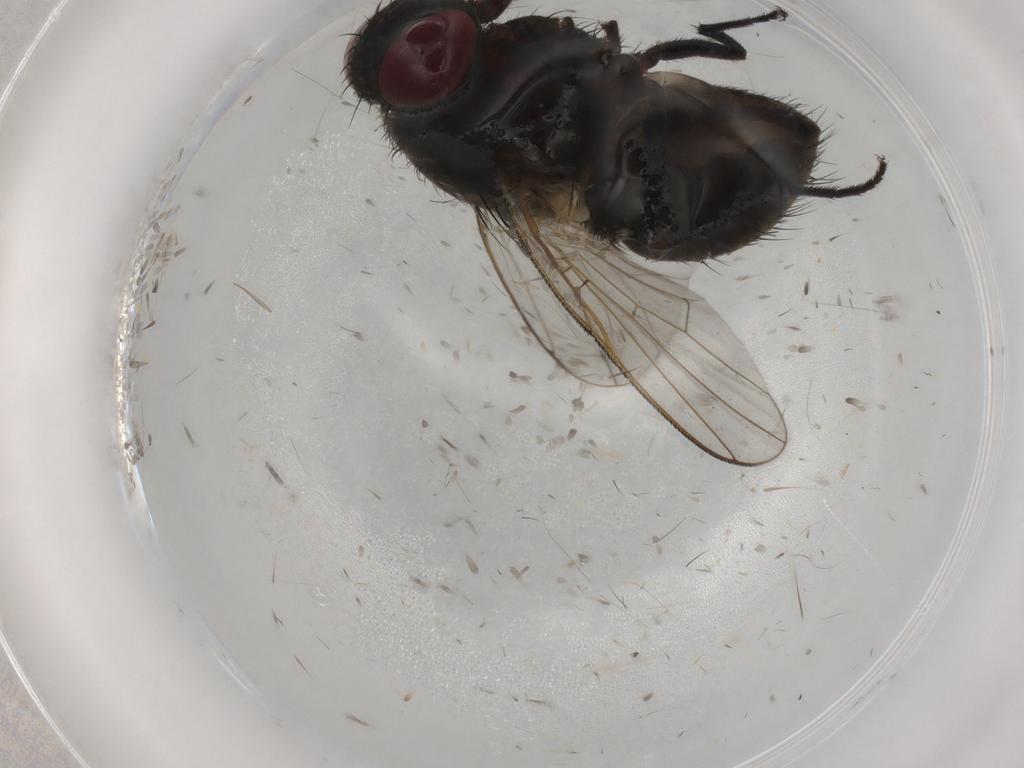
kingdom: Animalia
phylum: Arthropoda
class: Insecta
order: Diptera
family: Muscidae
